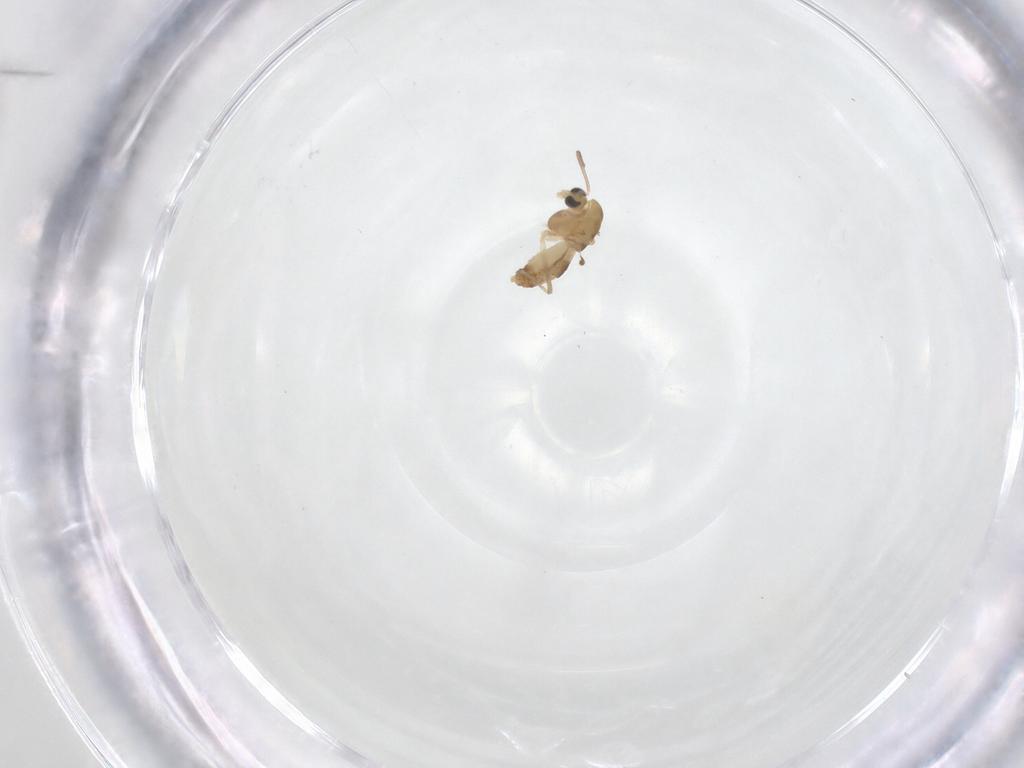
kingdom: Animalia
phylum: Arthropoda
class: Insecta
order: Diptera
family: Chironomidae
